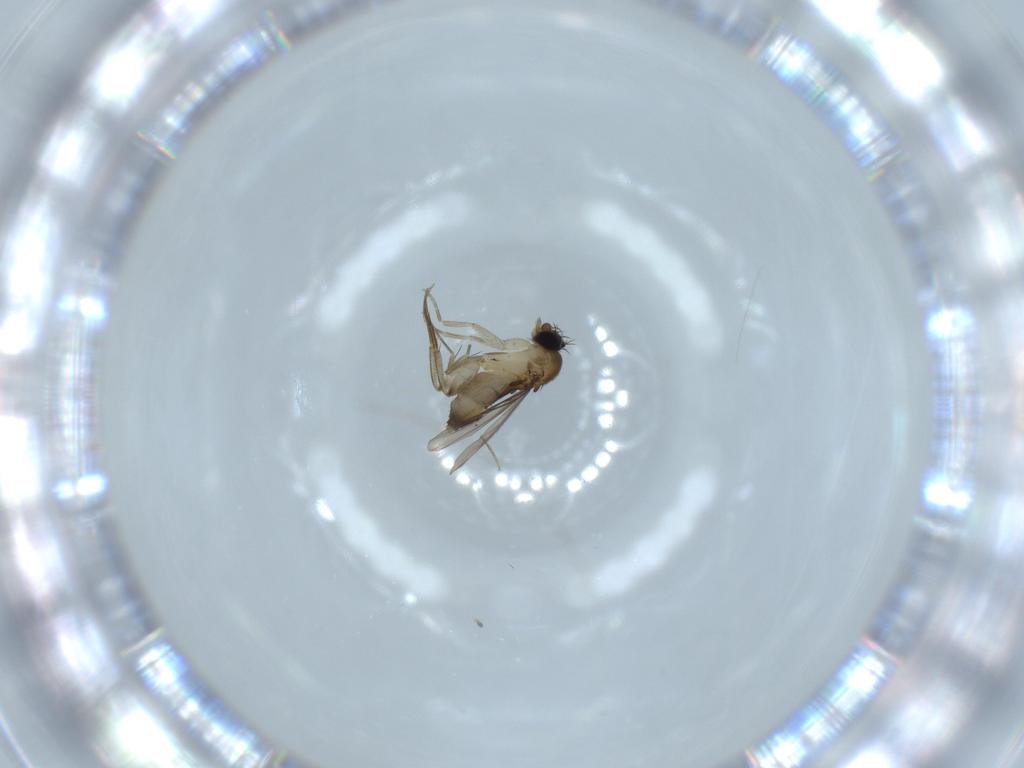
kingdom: Animalia
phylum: Arthropoda
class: Insecta
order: Diptera
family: Phoridae
